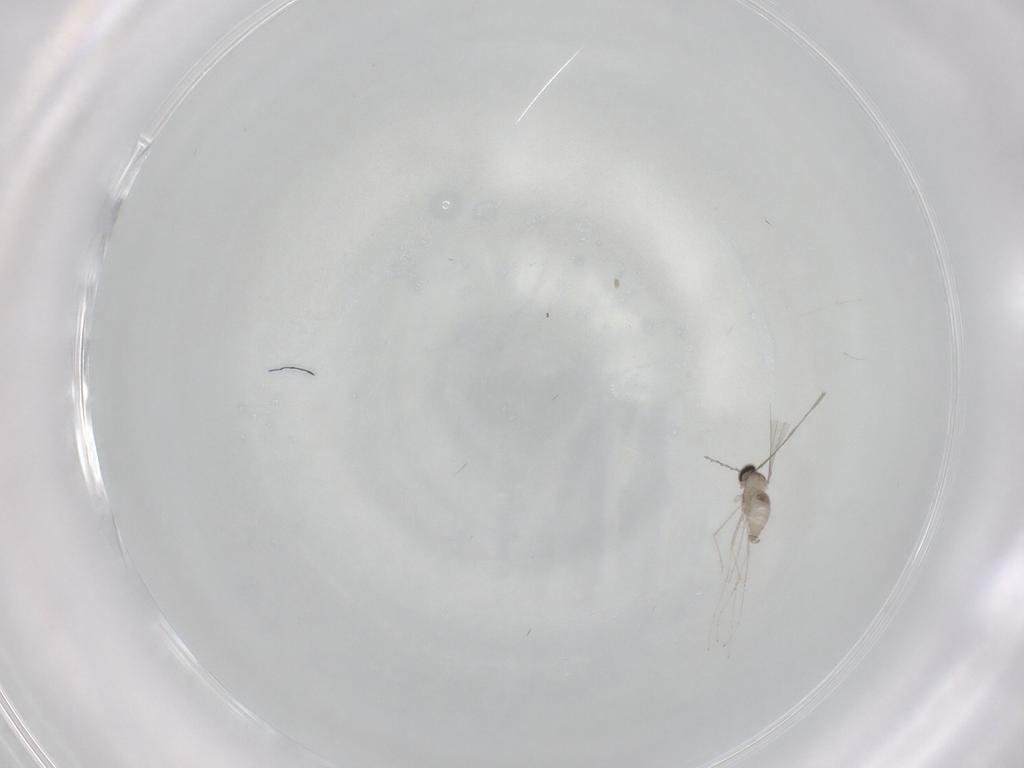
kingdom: Animalia
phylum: Arthropoda
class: Insecta
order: Diptera
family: Cecidomyiidae
